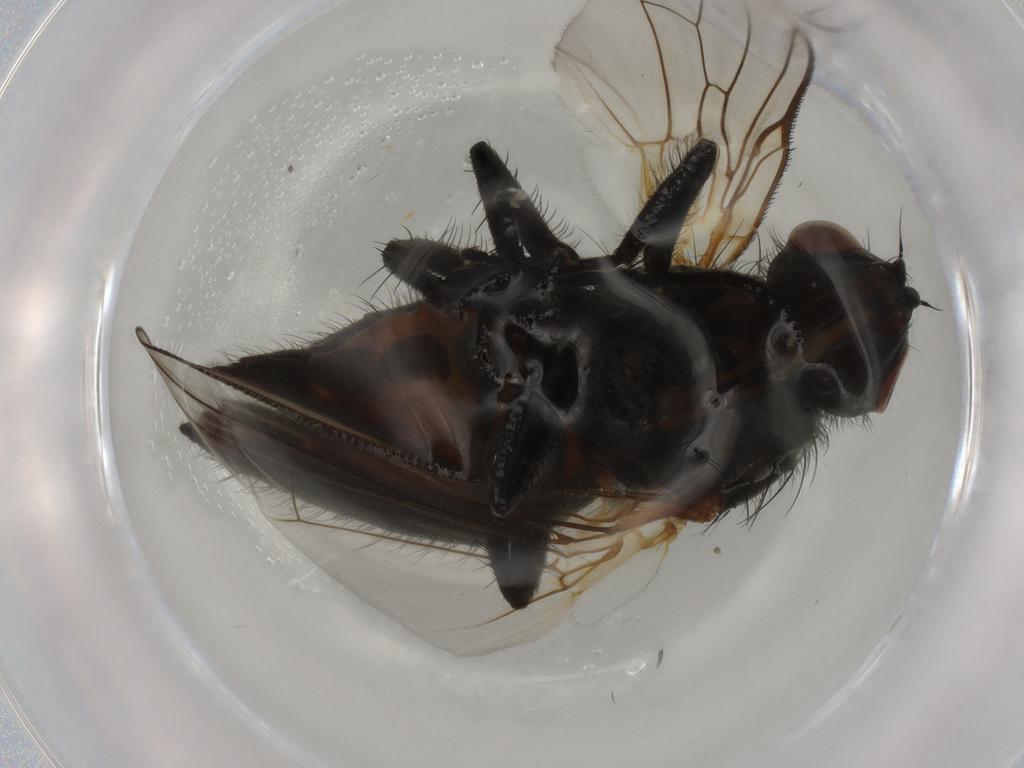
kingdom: Animalia
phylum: Arthropoda
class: Insecta
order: Diptera
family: Anthomyiidae
